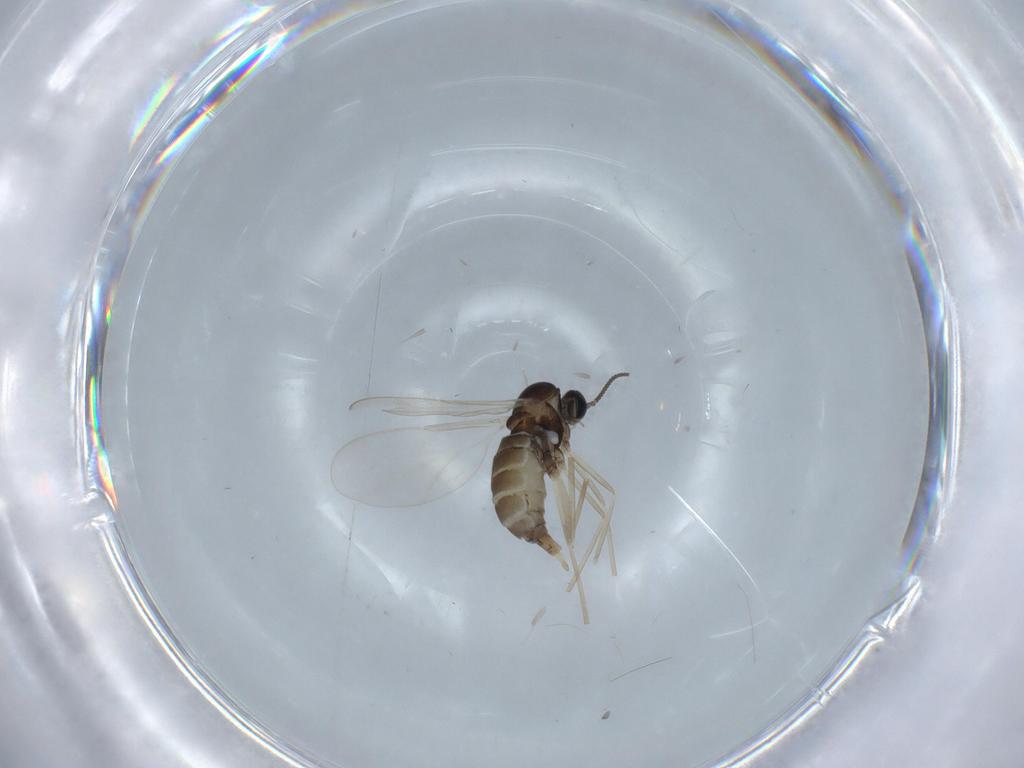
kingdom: Animalia
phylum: Arthropoda
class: Insecta
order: Diptera
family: Cecidomyiidae
